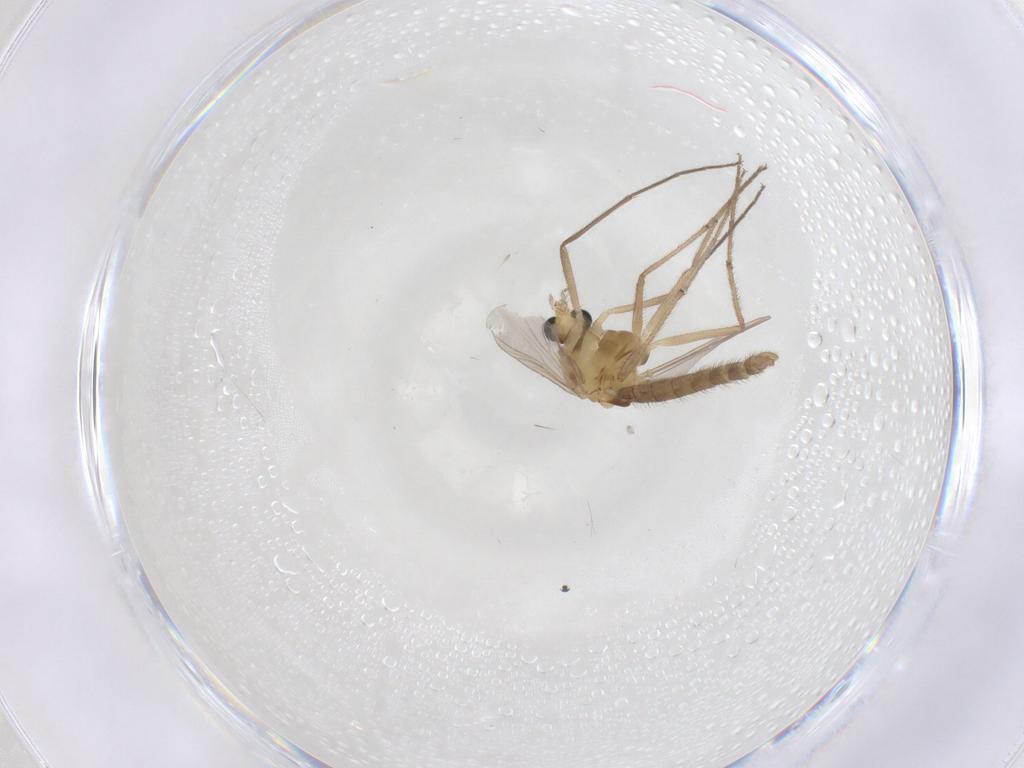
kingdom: Animalia
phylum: Arthropoda
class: Insecta
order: Diptera
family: Chironomidae
